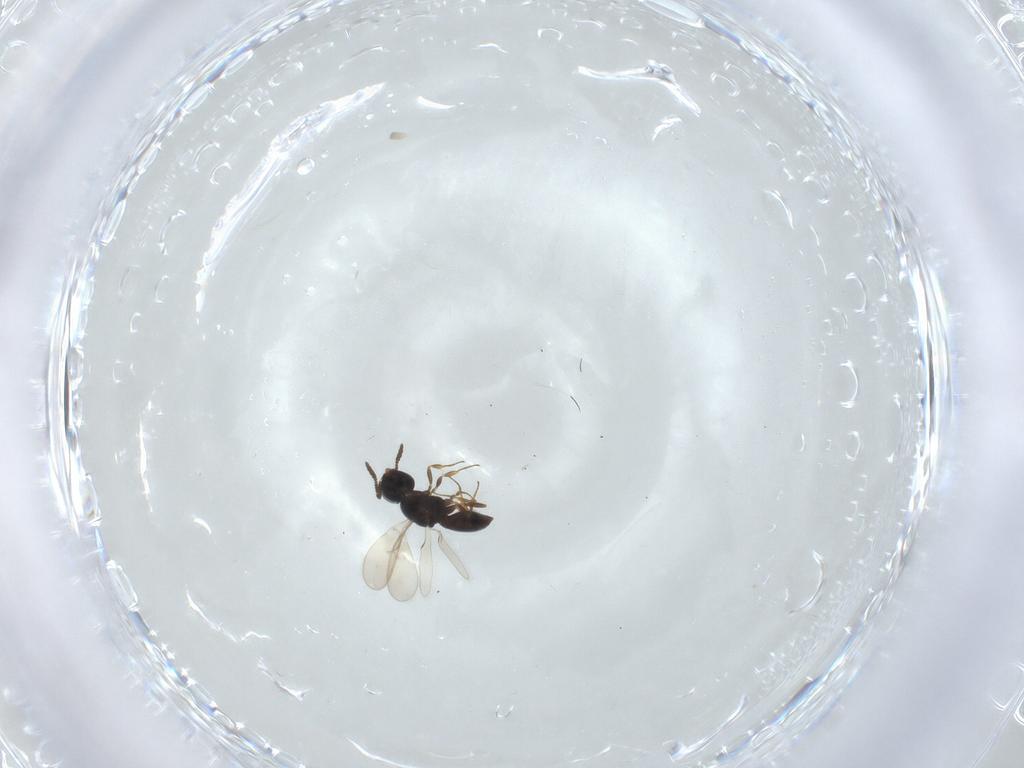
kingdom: Animalia
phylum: Arthropoda
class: Insecta
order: Hymenoptera
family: Scelionidae
